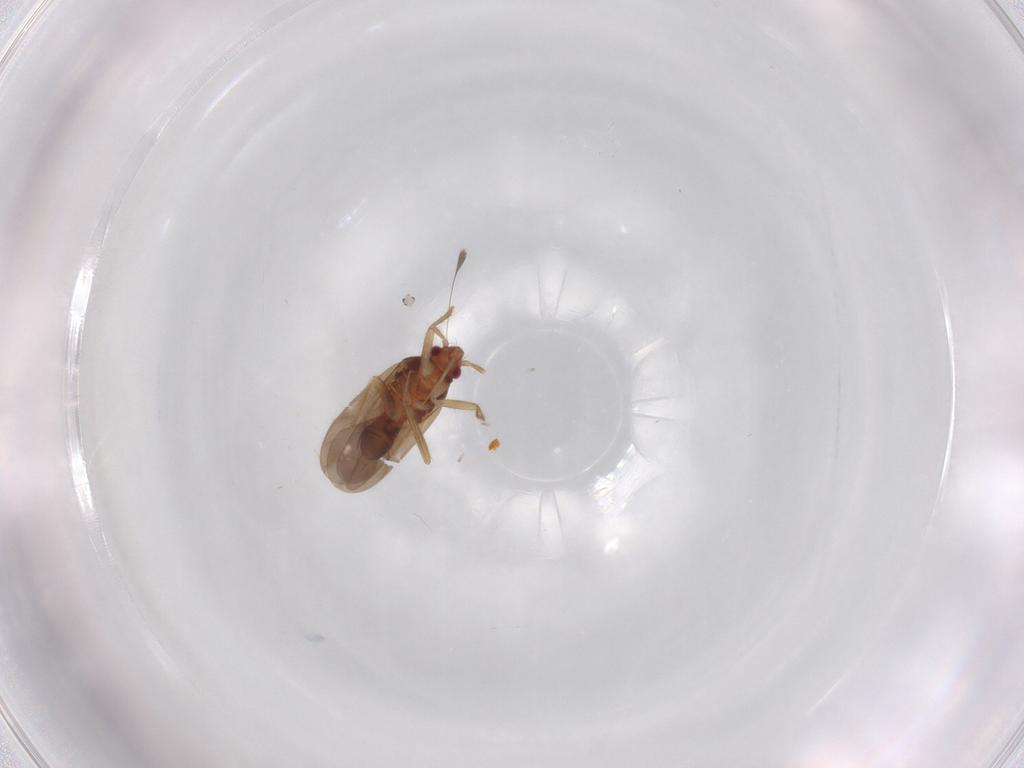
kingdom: Animalia
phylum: Arthropoda
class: Insecta
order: Hemiptera
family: Ceratocombidae
